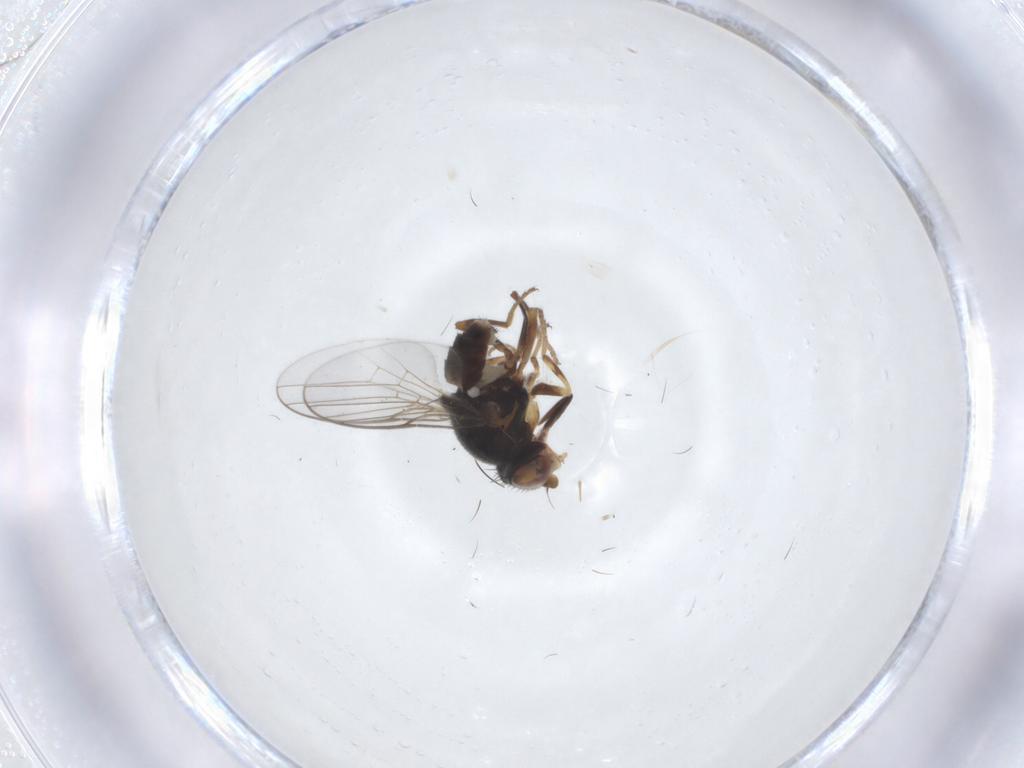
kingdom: Animalia
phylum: Arthropoda
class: Insecta
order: Diptera
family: Chloropidae
